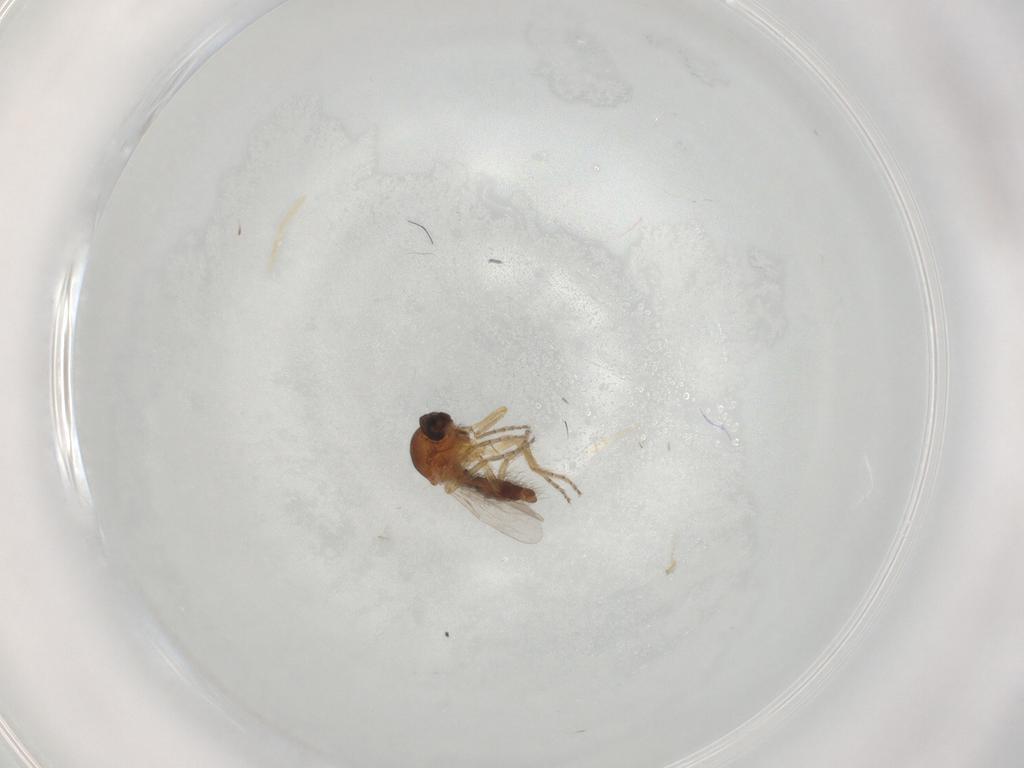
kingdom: Animalia
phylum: Arthropoda
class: Insecta
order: Diptera
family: Ceratopogonidae
